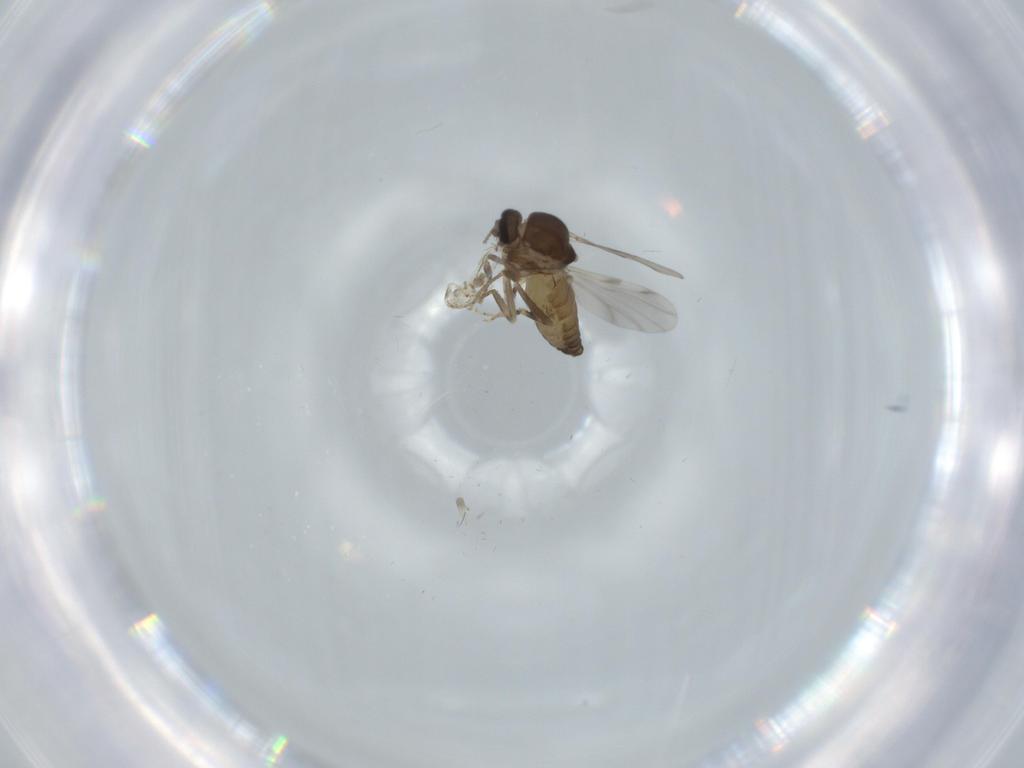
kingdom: Animalia
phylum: Arthropoda
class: Insecta
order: Diptera
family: Ceratopogonidae
